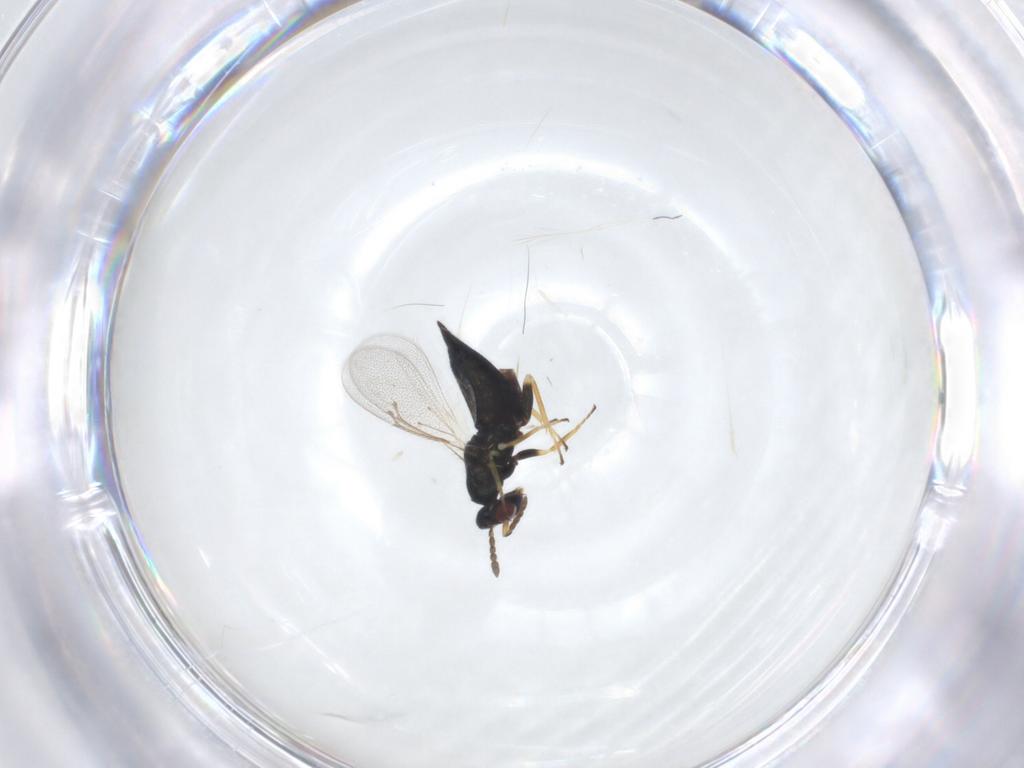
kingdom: Animalia
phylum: Arthropoda
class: Insecta
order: Hymenoptera
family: Eulophidae
